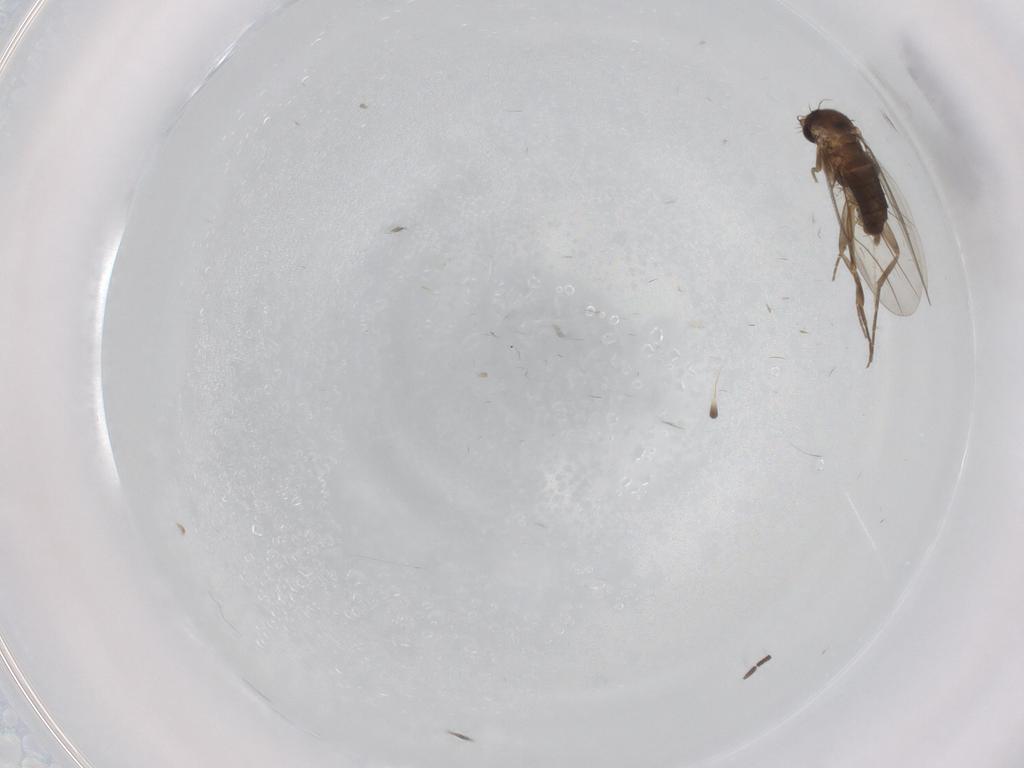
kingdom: Animalia
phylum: Arthropoda
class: Insecta
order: Diptera
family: Phoridae
